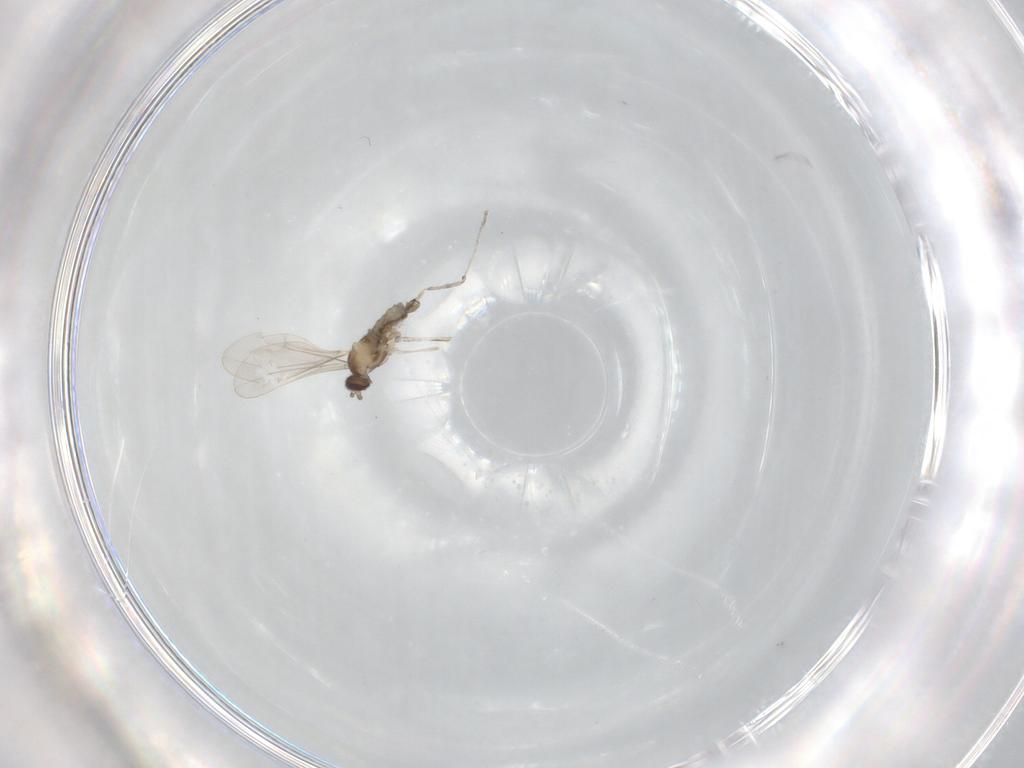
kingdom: Animalia
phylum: Arthropoda
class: Insecta
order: Diptera
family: Cecidomyiidae
